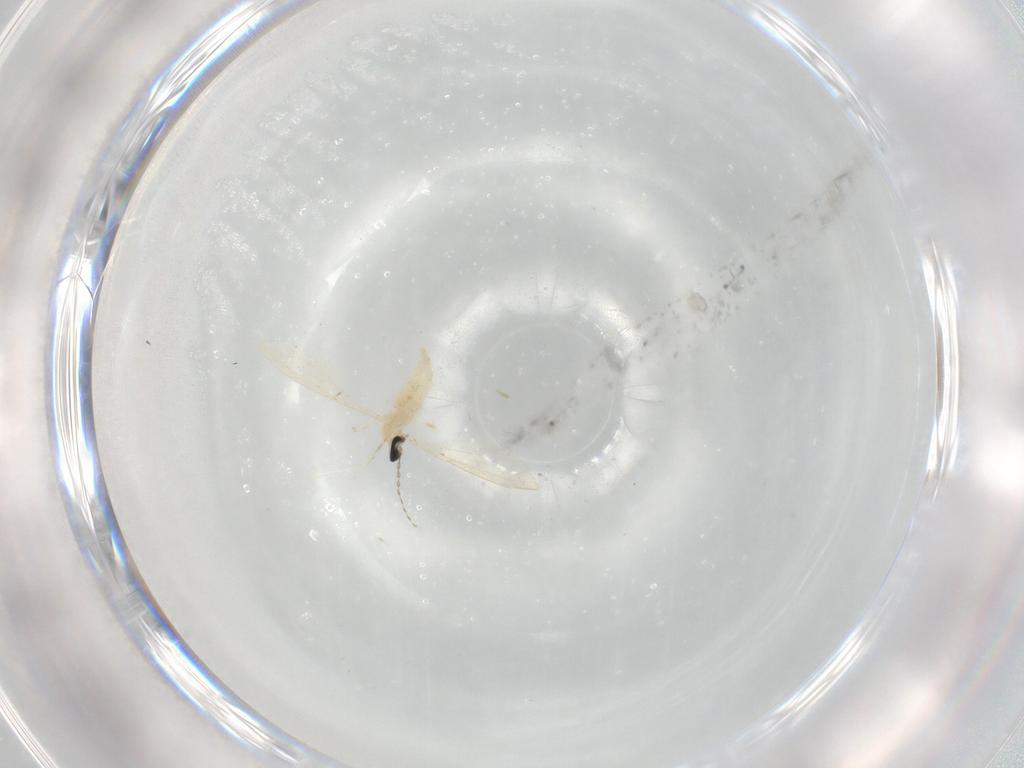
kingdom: Animalia
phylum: Arthropoda
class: Insecta
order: Diptera
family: Cecidomyiidae
